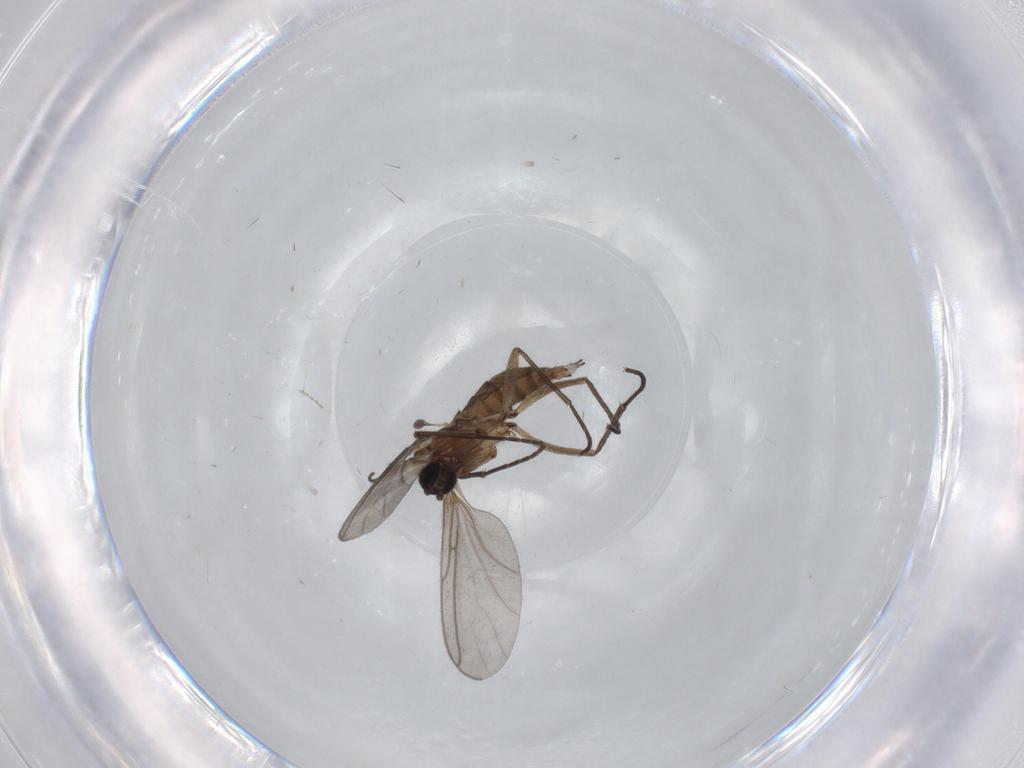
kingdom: Animalia
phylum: Arthropoda
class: Insecta
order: Diptera
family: Sciaridae
